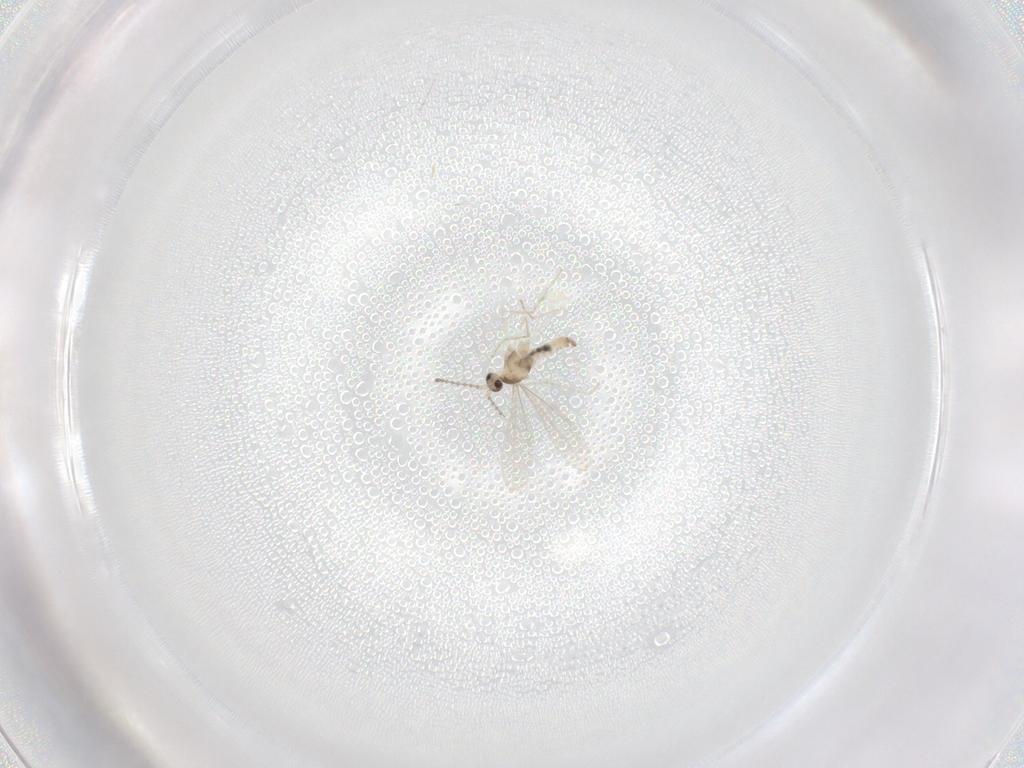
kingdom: Animalia
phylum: Arthropoda
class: Insecta
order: Diptera
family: Cecidomyiidae
